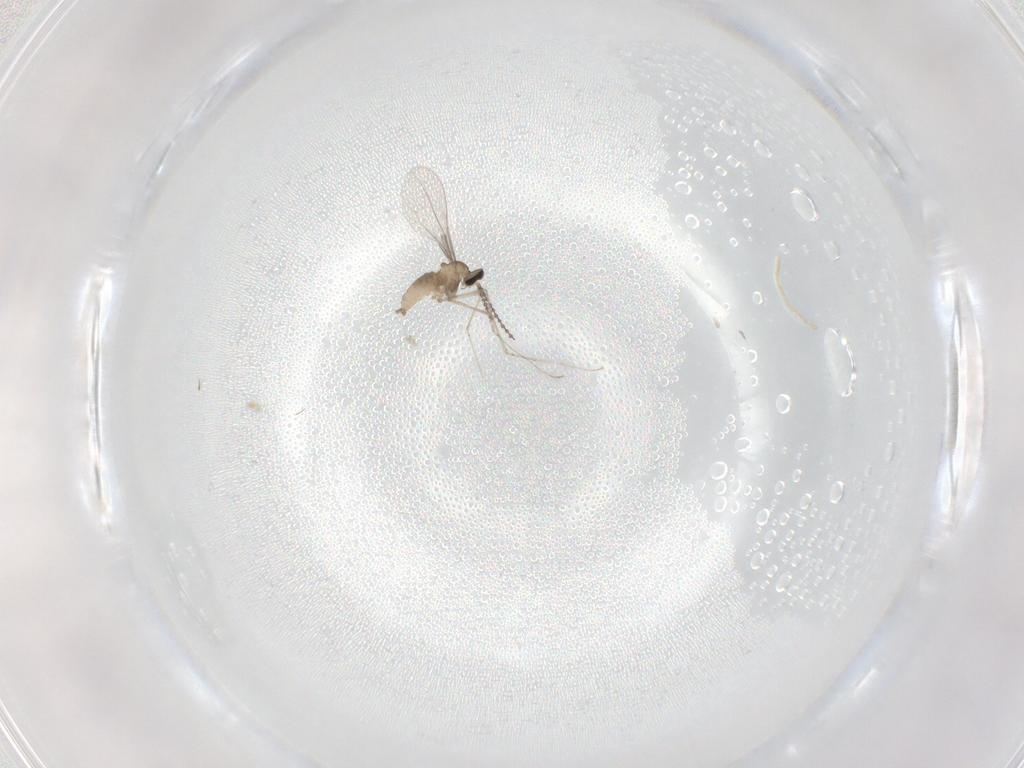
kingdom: Animalia
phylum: Arthropoda
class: Insecta
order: Diptera
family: Cecidomyiidae
